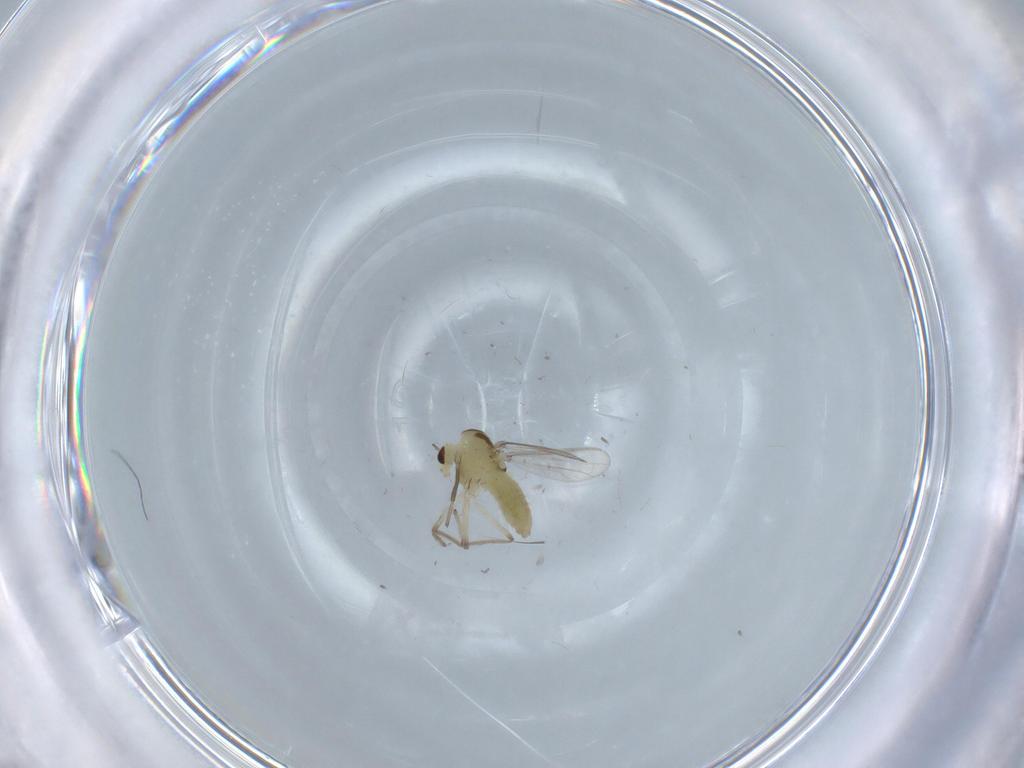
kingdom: Animalia
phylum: Arthropoda
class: Insecta
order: Diptera
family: Chironomidae
